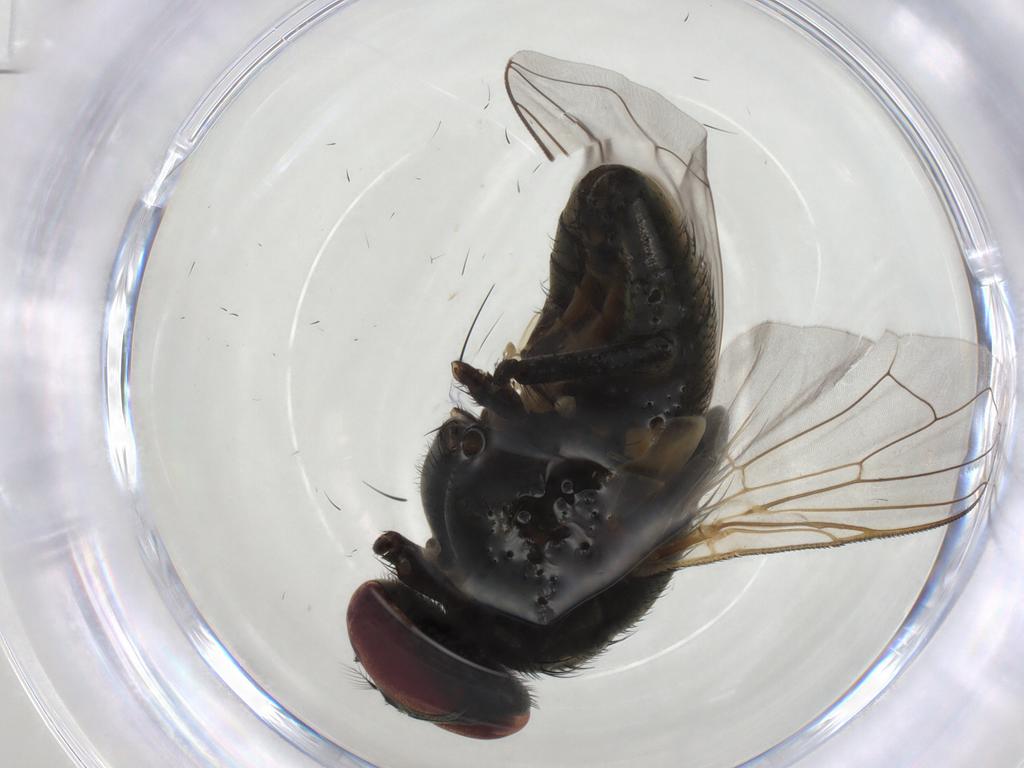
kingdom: Animalia
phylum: Arthropoda
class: Insecta
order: Diptera
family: Muscidae
